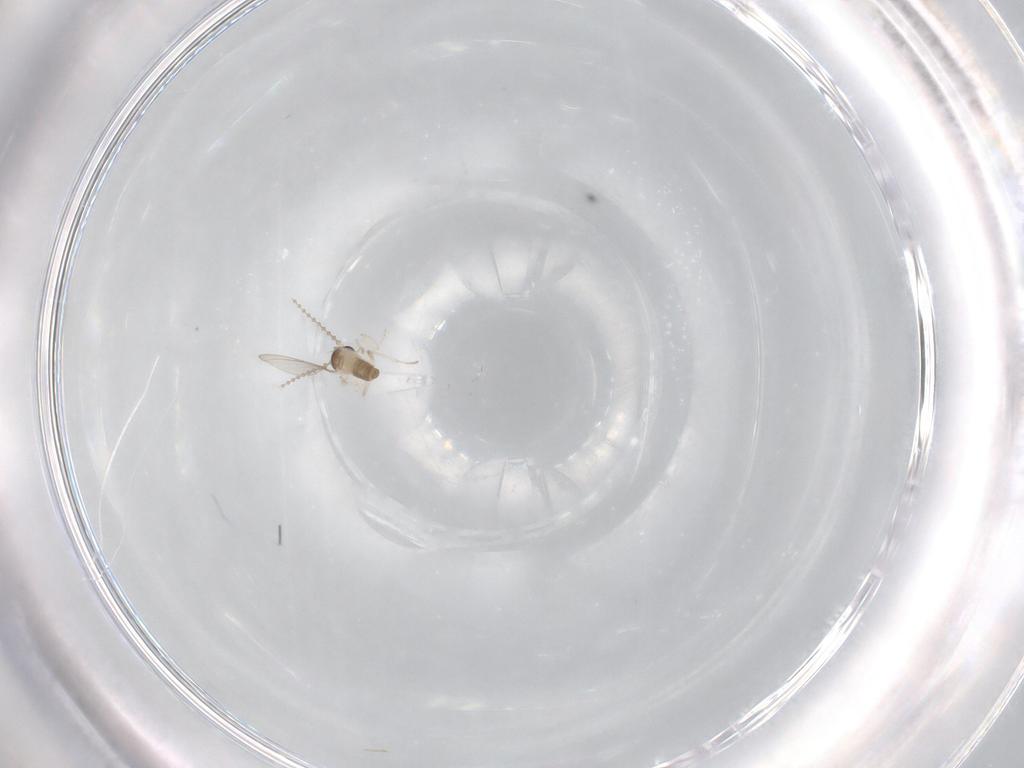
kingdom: Animalia
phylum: Arthropoda
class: Insecta
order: Diptera
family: Cecidomyiidae
